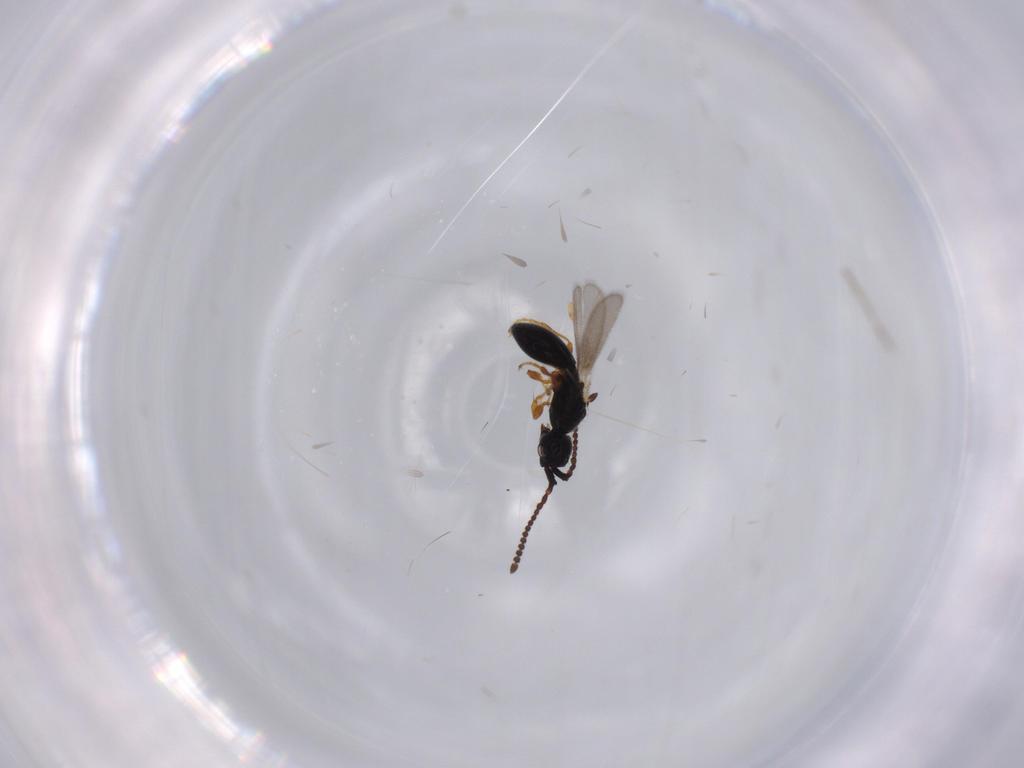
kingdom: Animalia
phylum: Arthropoda
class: Insecta
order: Hymenoptera
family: Diapriidae
